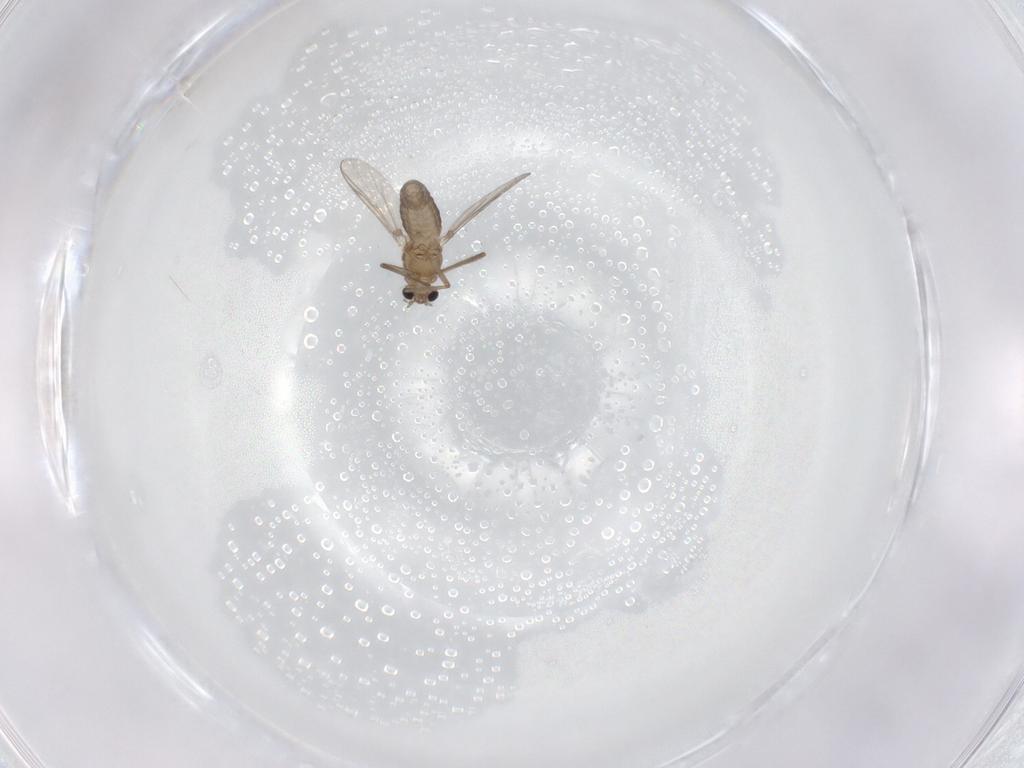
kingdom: Animalia
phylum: Arthropoda
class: Insecta
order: Diptera
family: Chironomidae
